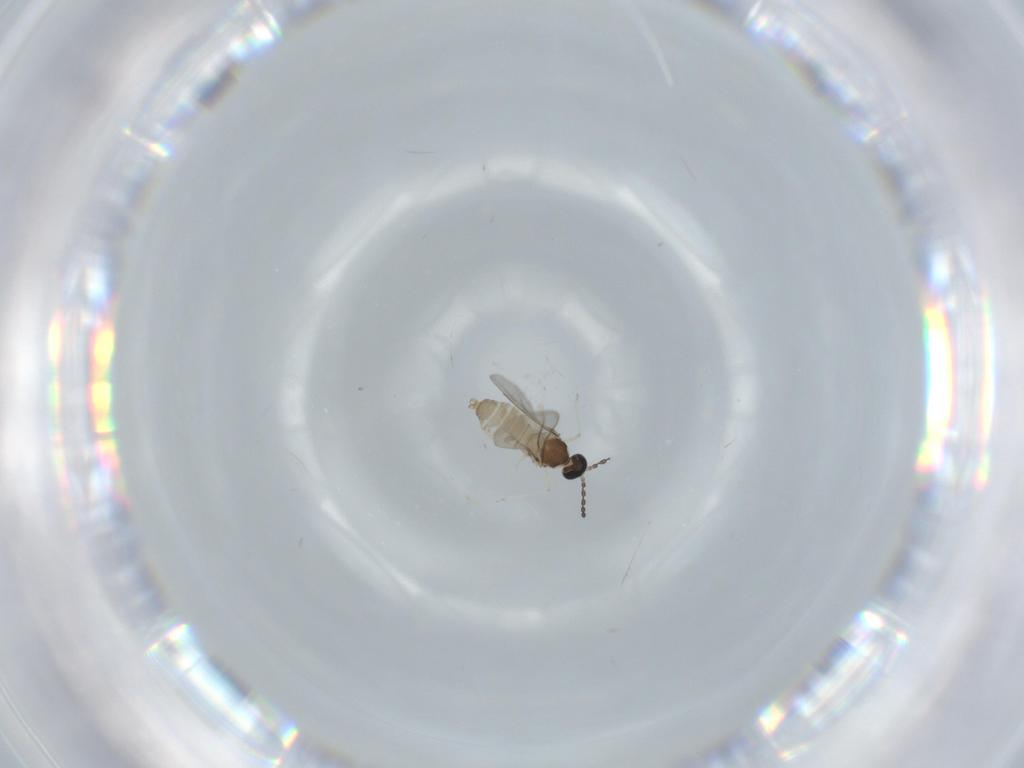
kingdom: Animalia
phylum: Arthropoda
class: Insecta
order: Diptera
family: Cecidomyiidae
